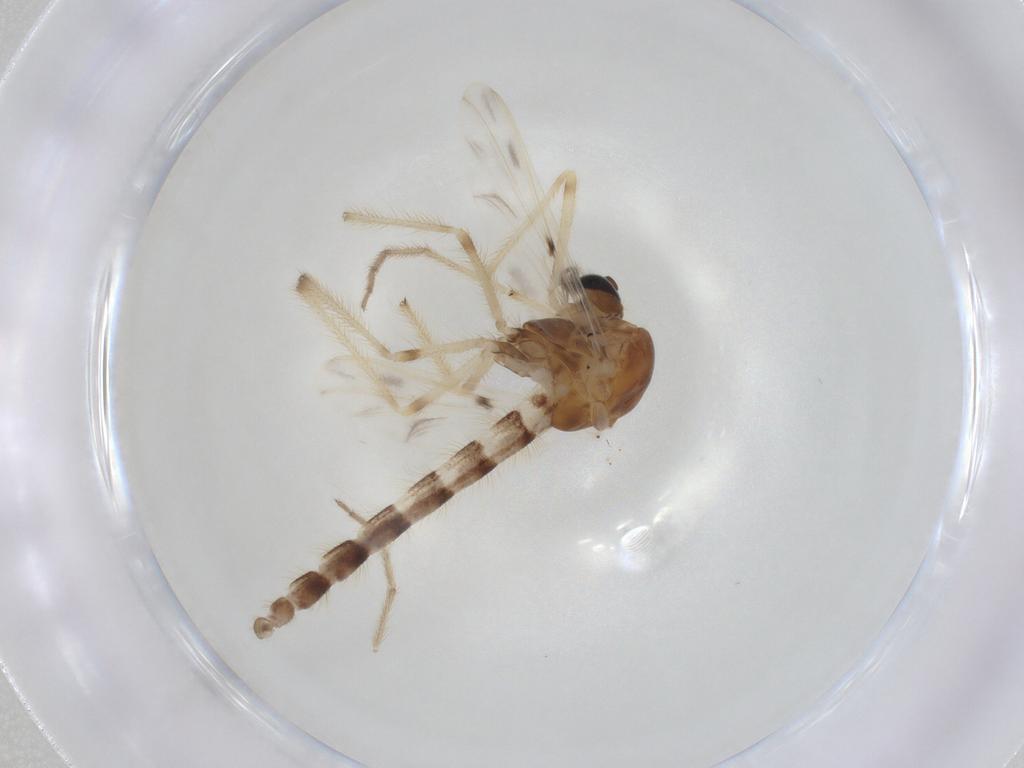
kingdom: Animalia
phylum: Arthropoda
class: Insecta
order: Diptera
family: Chironomidae
